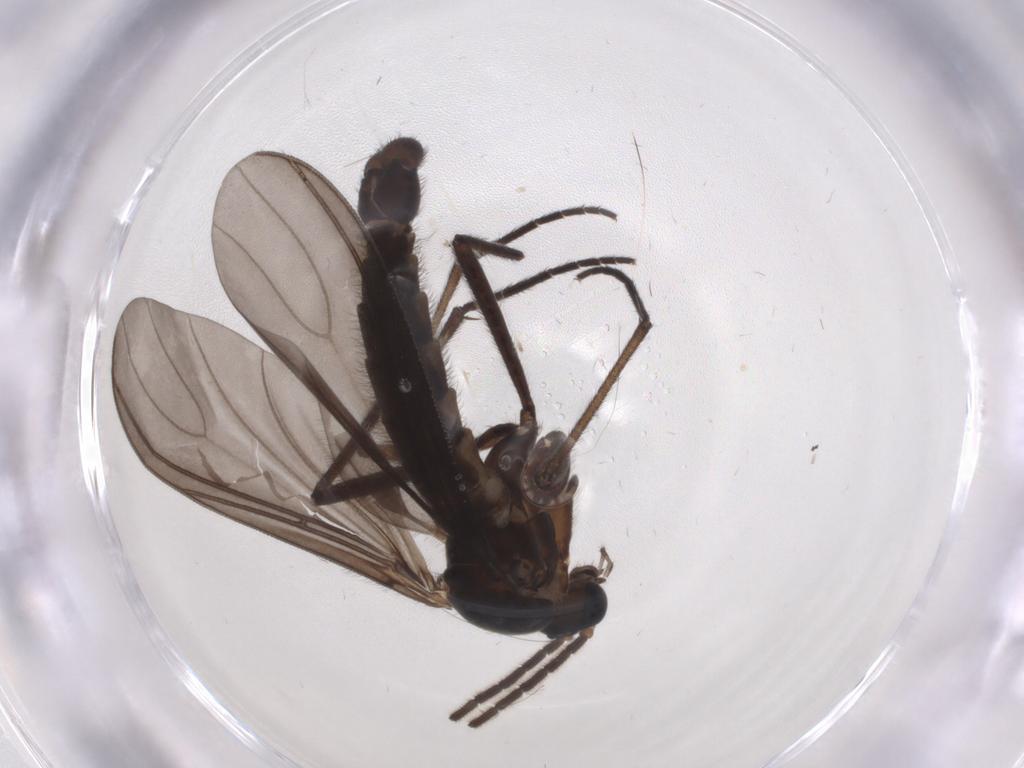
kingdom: Animalia
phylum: Arthropoda
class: Insecta
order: Diptera
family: Sciaridae
